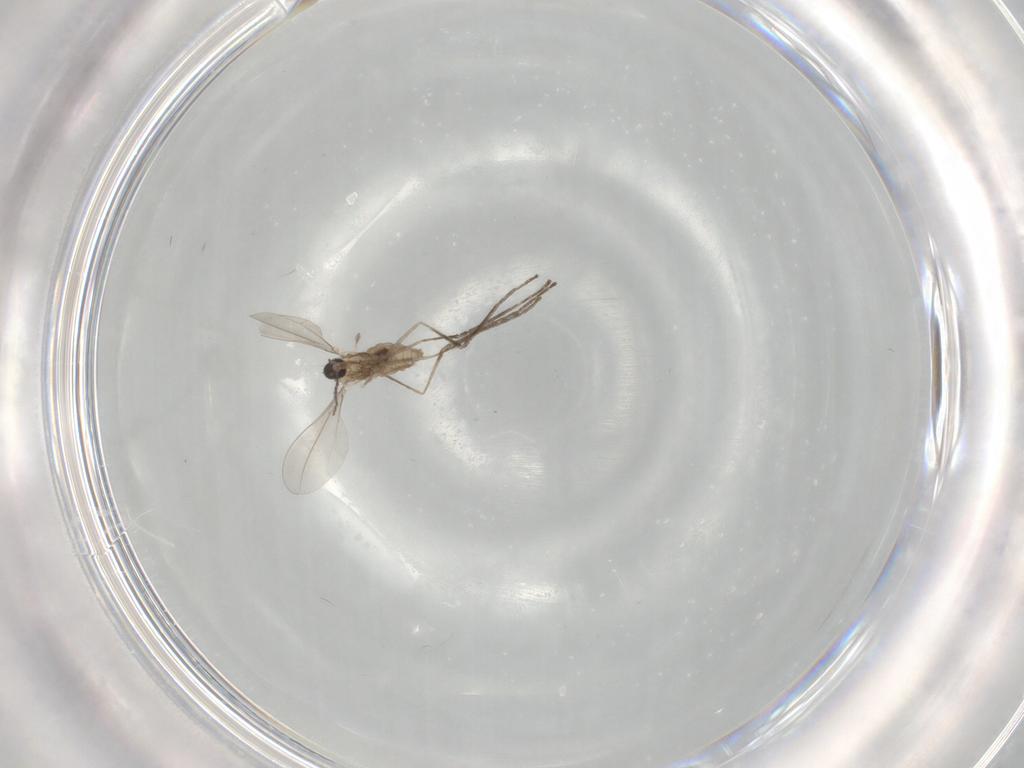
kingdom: Animalia
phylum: Arthropoda
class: Insecta
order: Diptera
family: Cecidomyiidae
